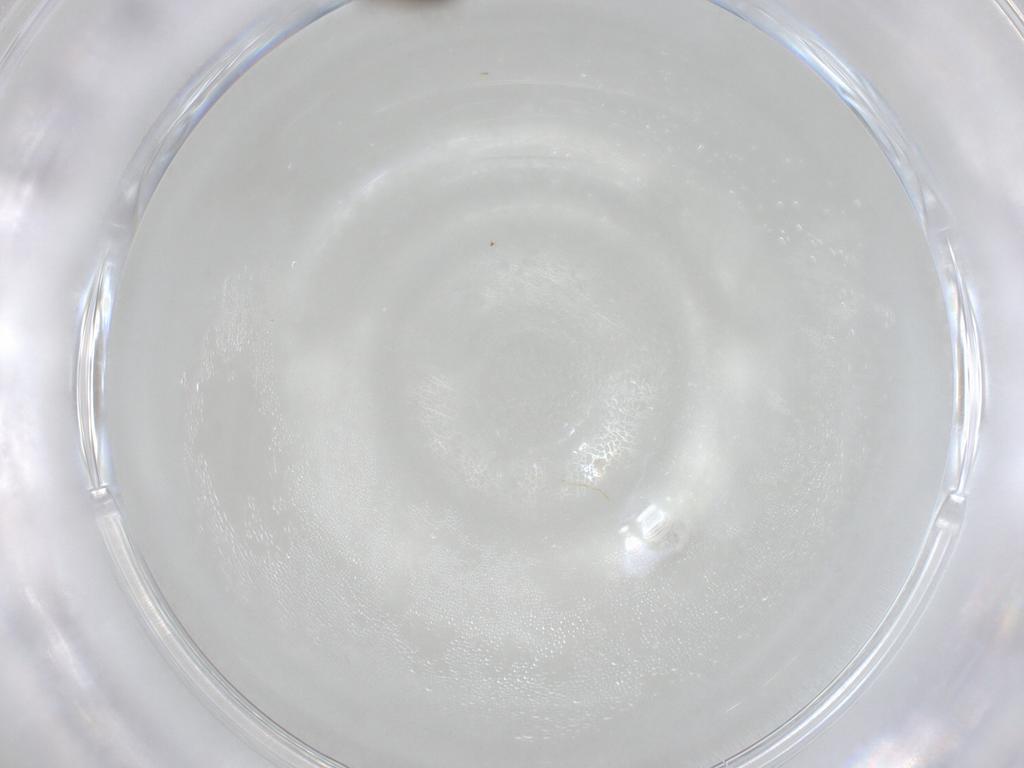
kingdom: Animalia
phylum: Arthropoda
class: Insecta
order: Diptera
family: Psychodidae
